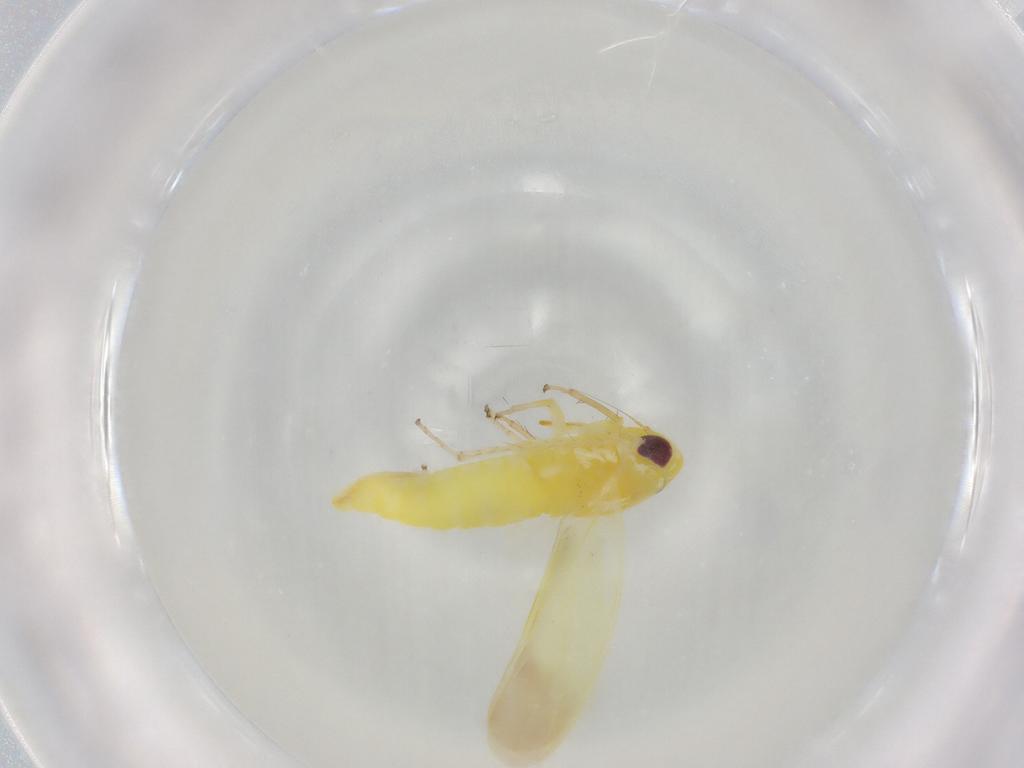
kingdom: Animalia
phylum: Arthropoda
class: Insecta
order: Hemiptera
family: Cicadellidae
